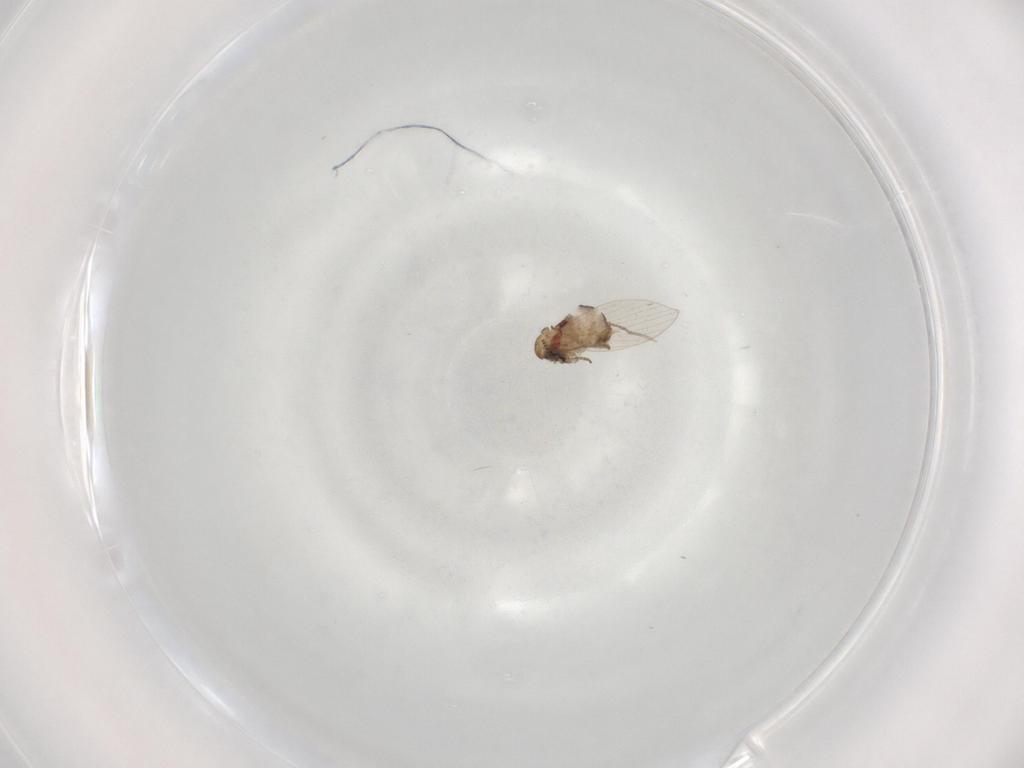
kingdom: Animalia
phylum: Arthropoda
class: Insecta
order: Diptera
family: Psychodidae
